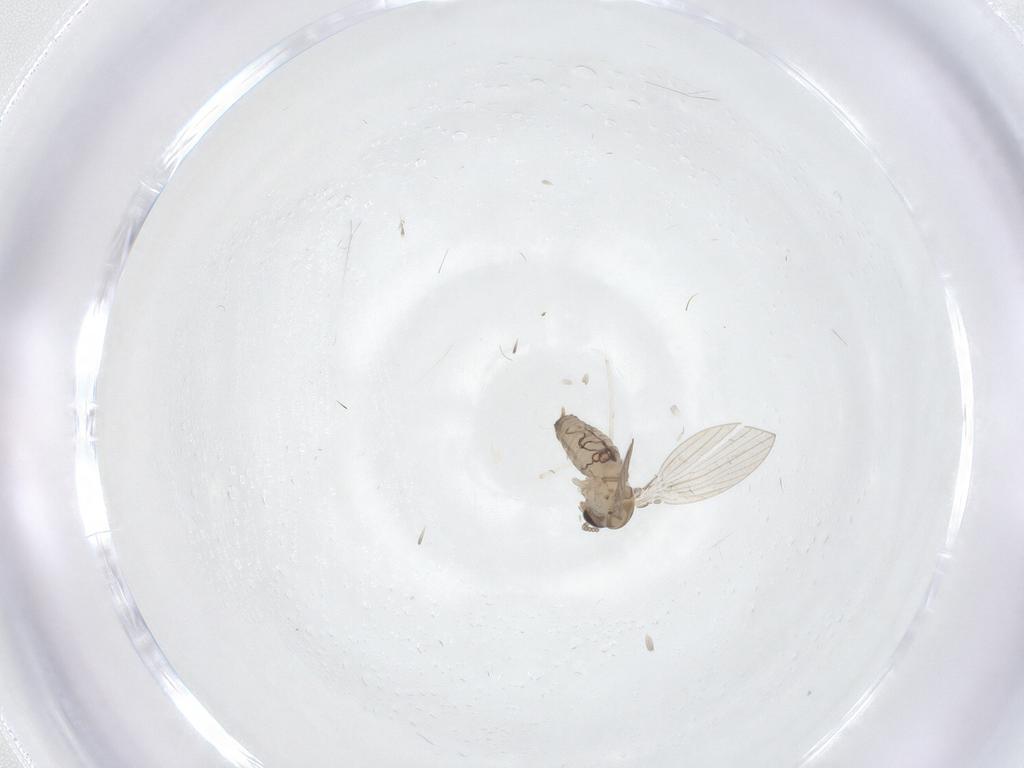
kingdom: Animalia
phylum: Arthropoda
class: Insecta
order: Diptera
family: Psychodidae
